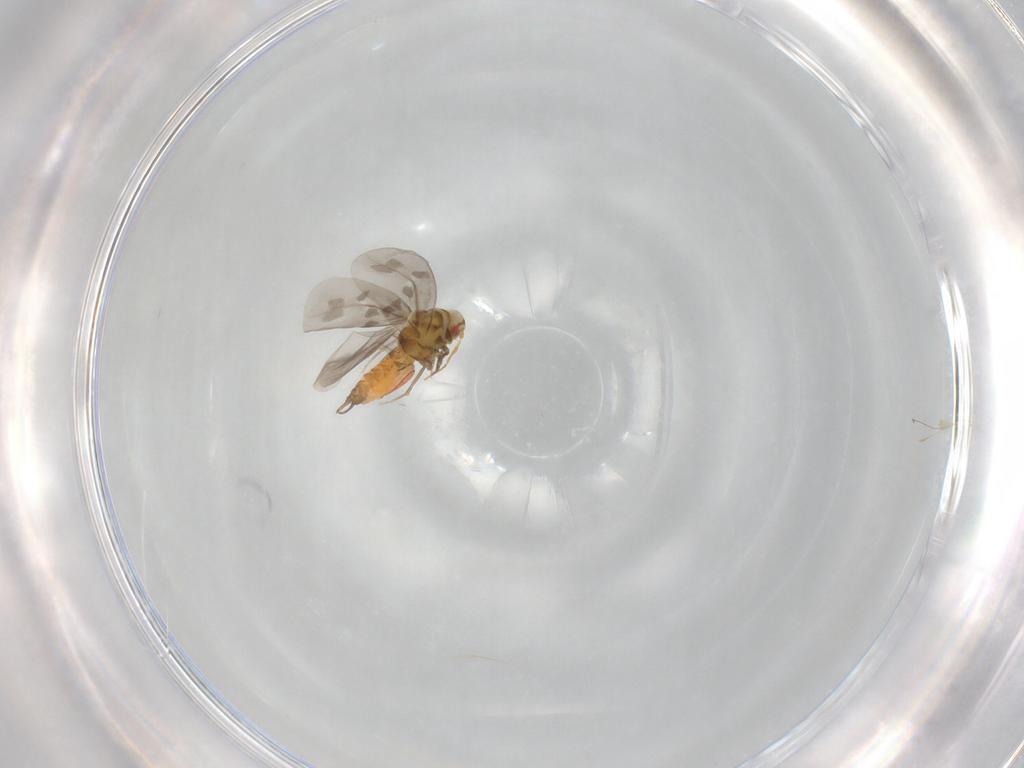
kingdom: Animalia
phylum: Arthropoda
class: Insecta
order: Hemiptera
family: Aleyrodidae
